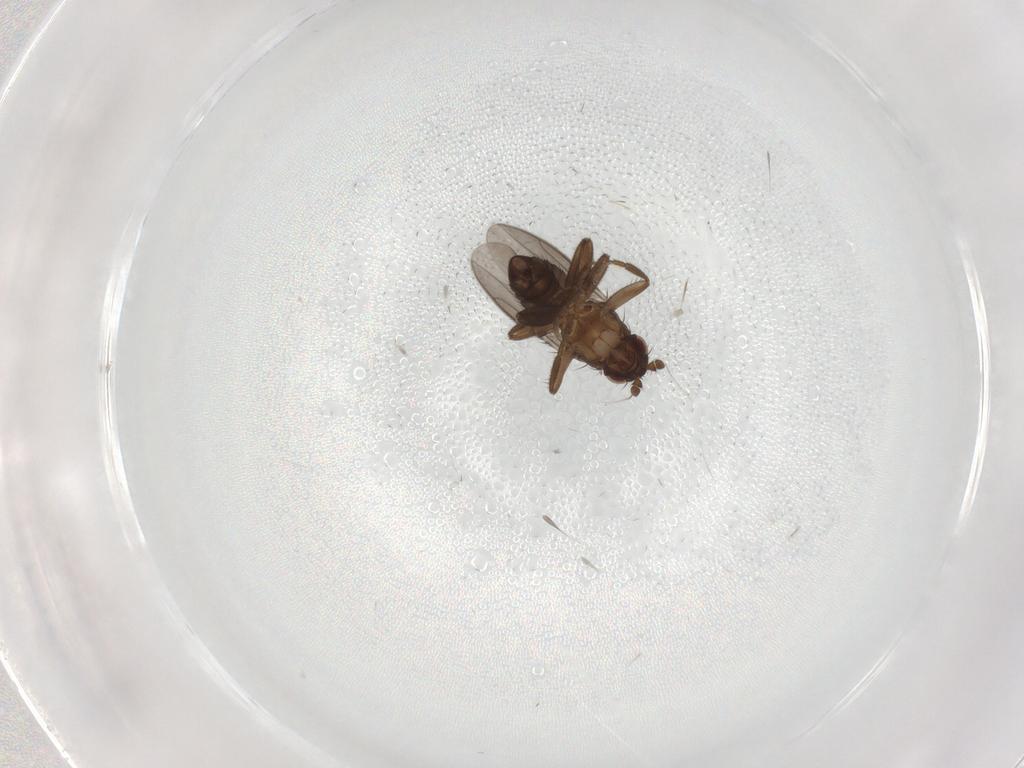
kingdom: Animalia
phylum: Arthropoda
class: Insecta
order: Diptera
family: Sphaeroceridae
